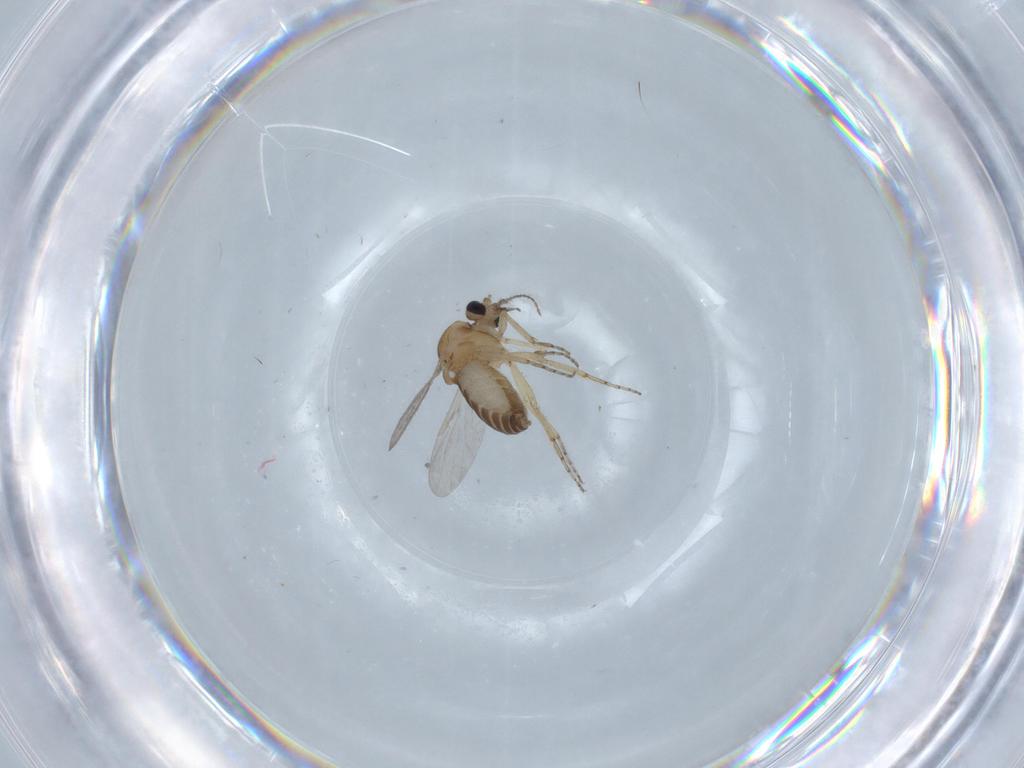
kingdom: Animalia
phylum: Arthropoda
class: Insecta
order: Diptera
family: Ceratopogonidae
